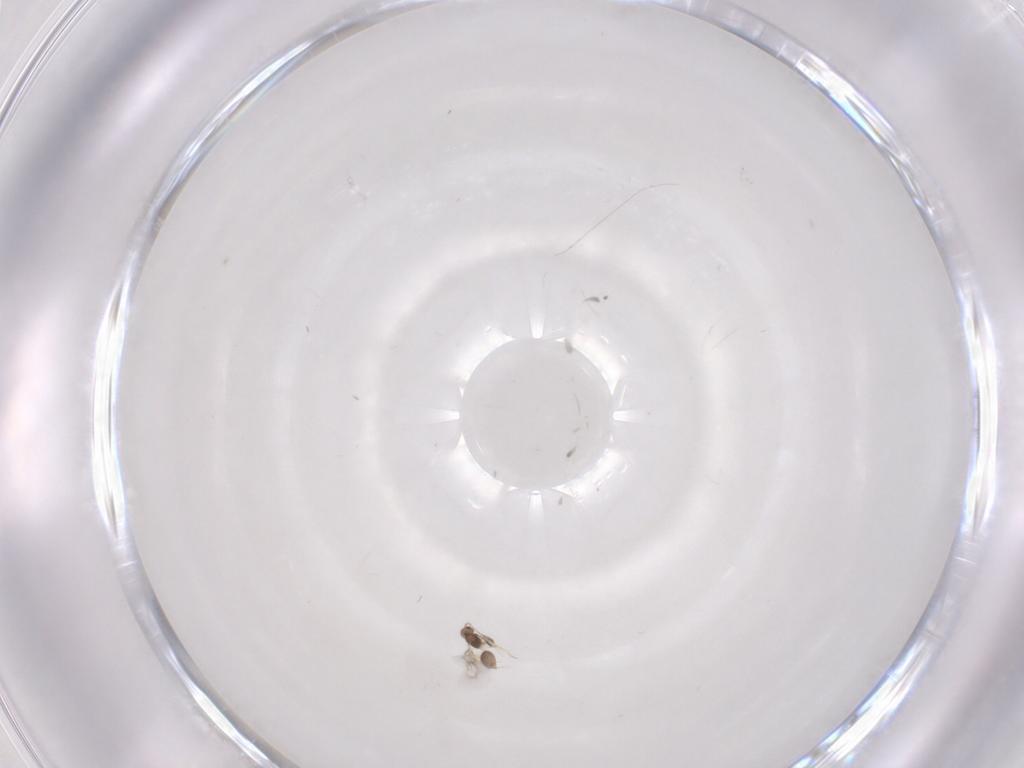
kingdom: Animalia
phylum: Arthropoda
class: Insecta
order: Hymenoptera
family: Mymarommatidae
